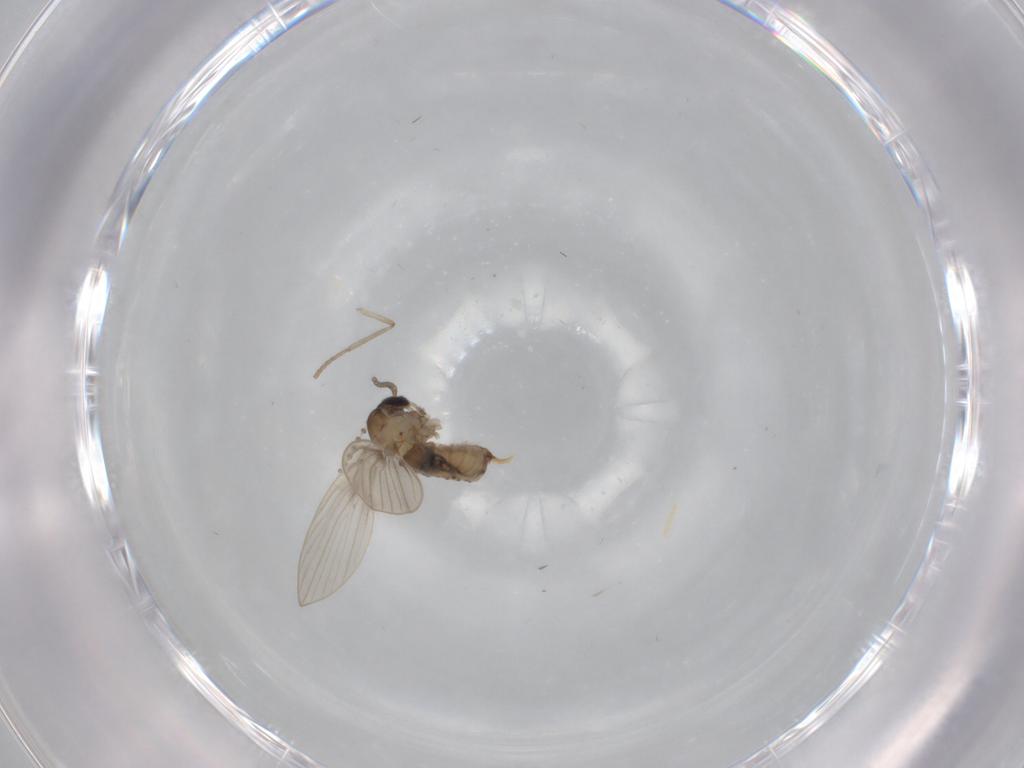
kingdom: Animalia
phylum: Arthropoda
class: Insecta
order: Diptera
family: Psychodidae
